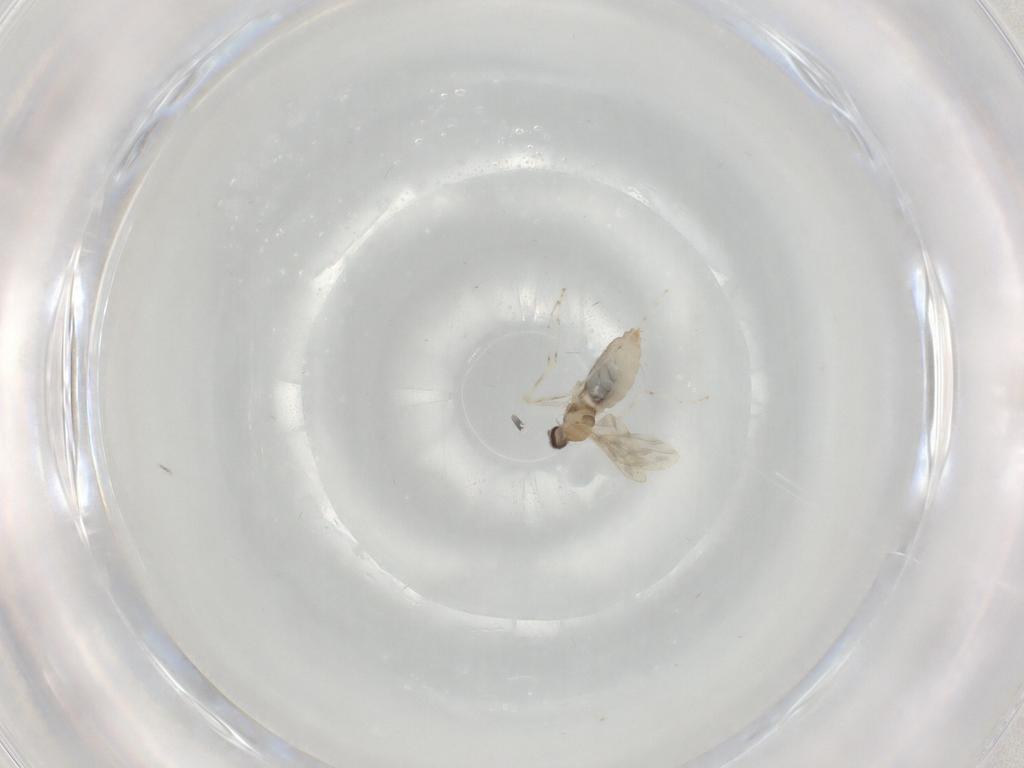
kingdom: Animalia
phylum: Arthropoda
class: Insecta
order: Diptera
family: Cecidomyiidae
